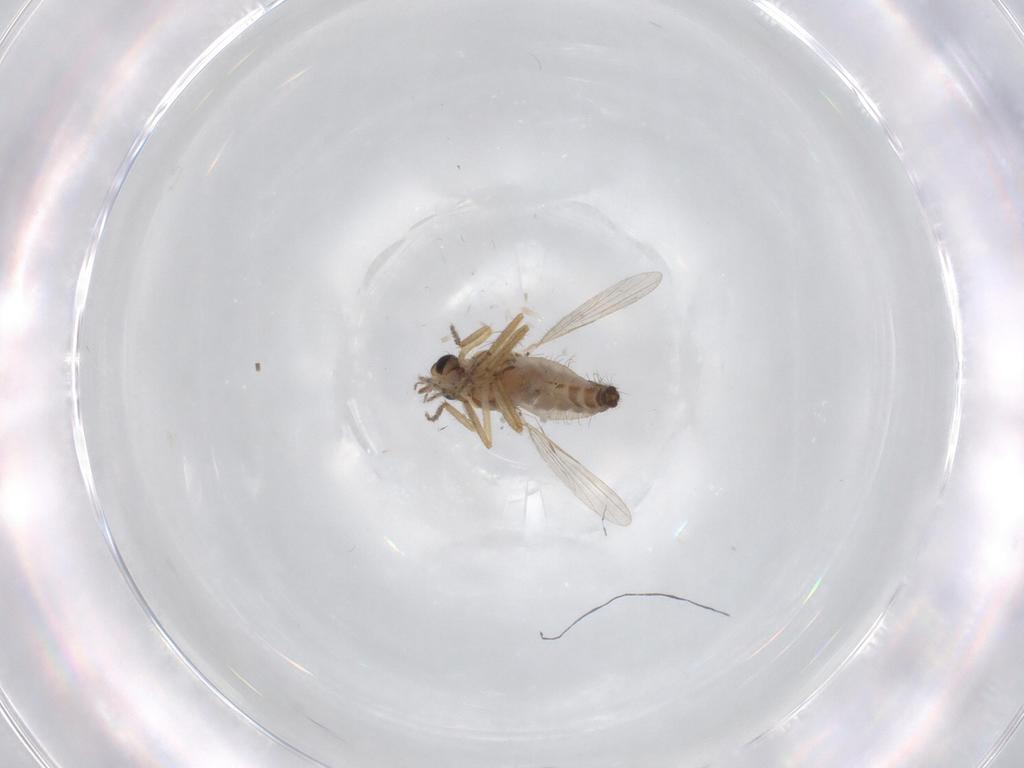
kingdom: Animalia
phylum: Arthropoda
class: Insecta
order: Diptera
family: Ceratopogonidae
